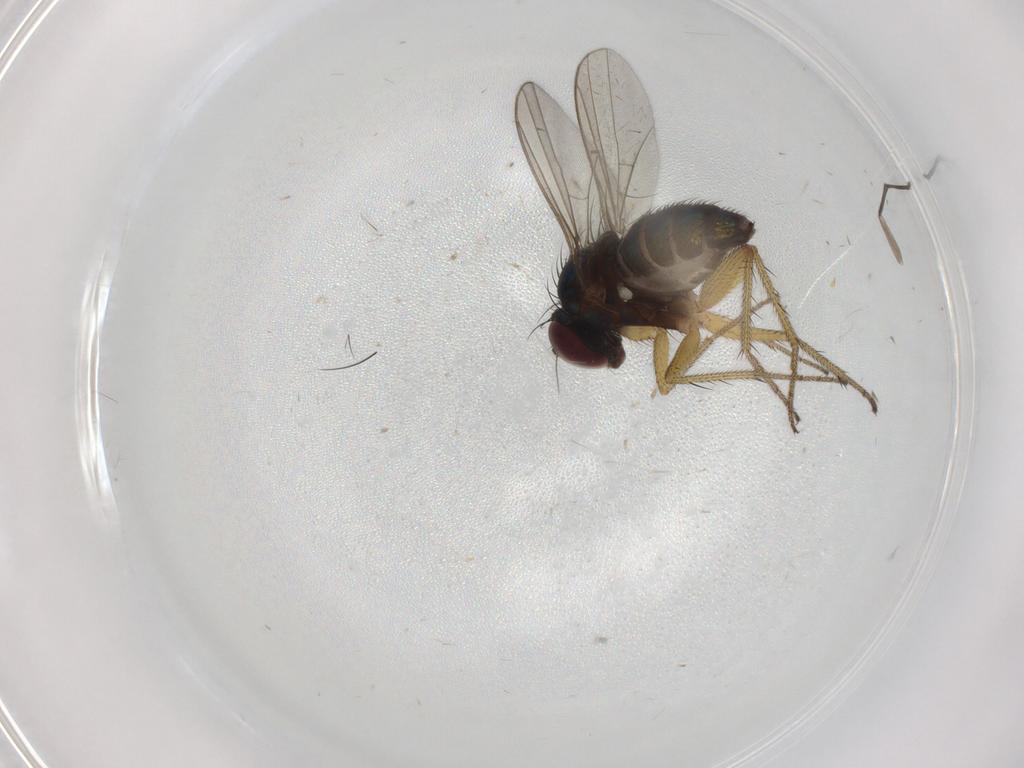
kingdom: Animalia
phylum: Arthropoda
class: Insecta
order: Diptera
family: Sciaridae
